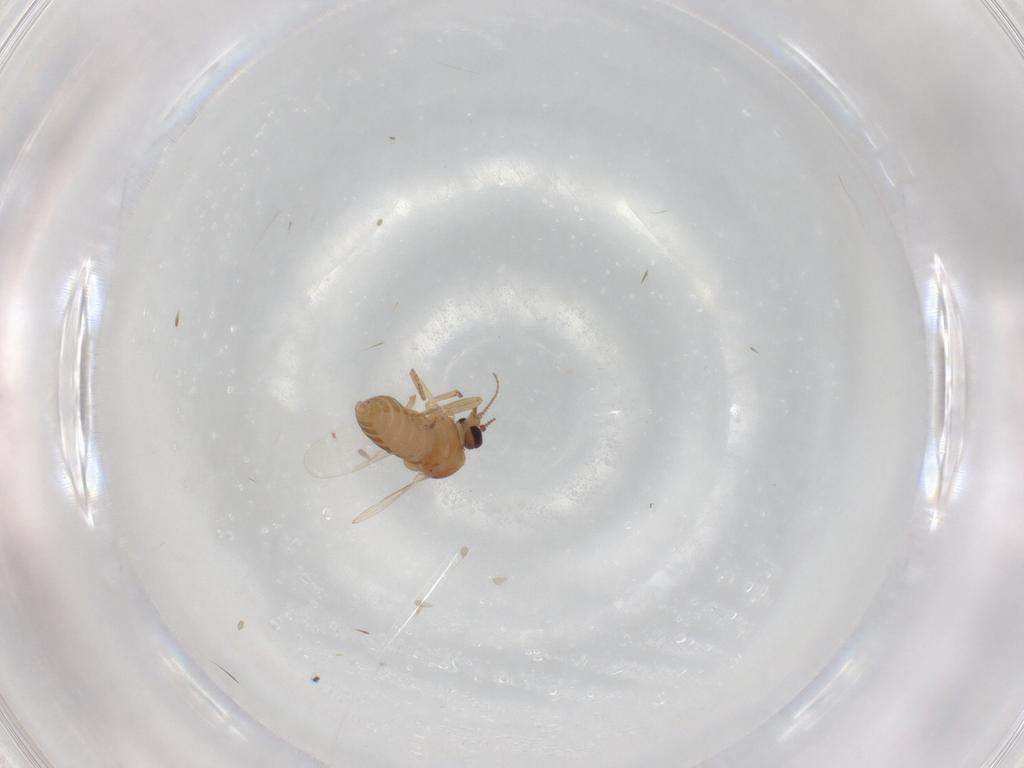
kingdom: Animalia
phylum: Arthropoda
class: Insecta
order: Diptera
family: Ceratopogonidae
